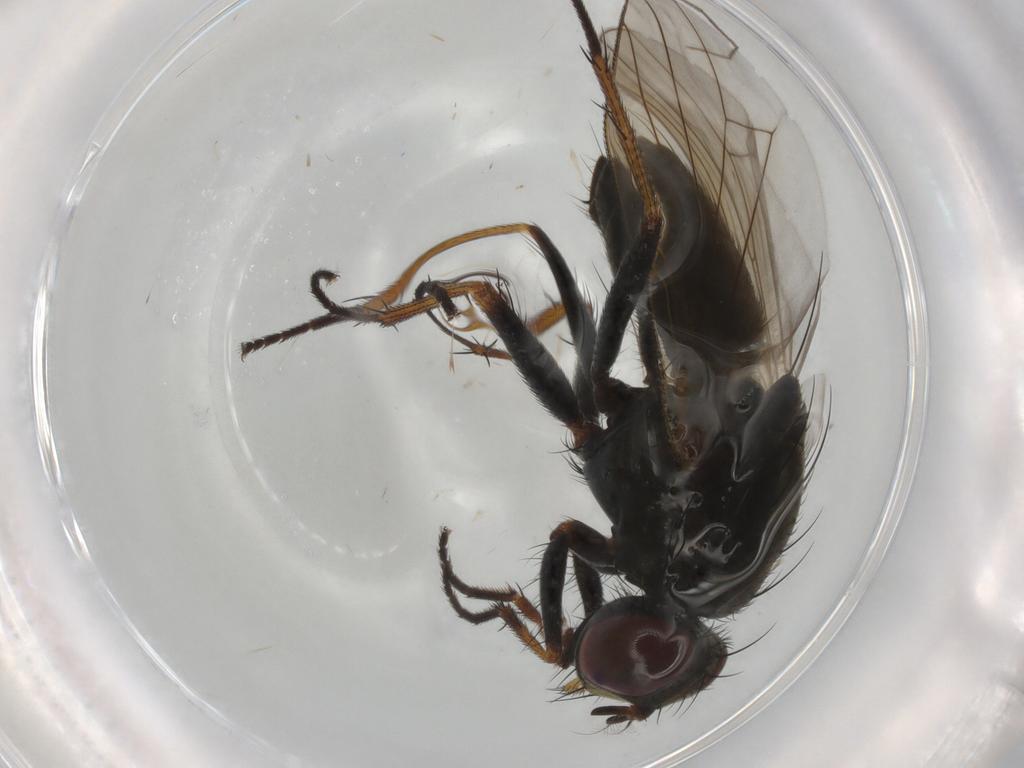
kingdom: Animalia
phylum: Arthropoda
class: Insecta
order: Diptera
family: Muscidae
